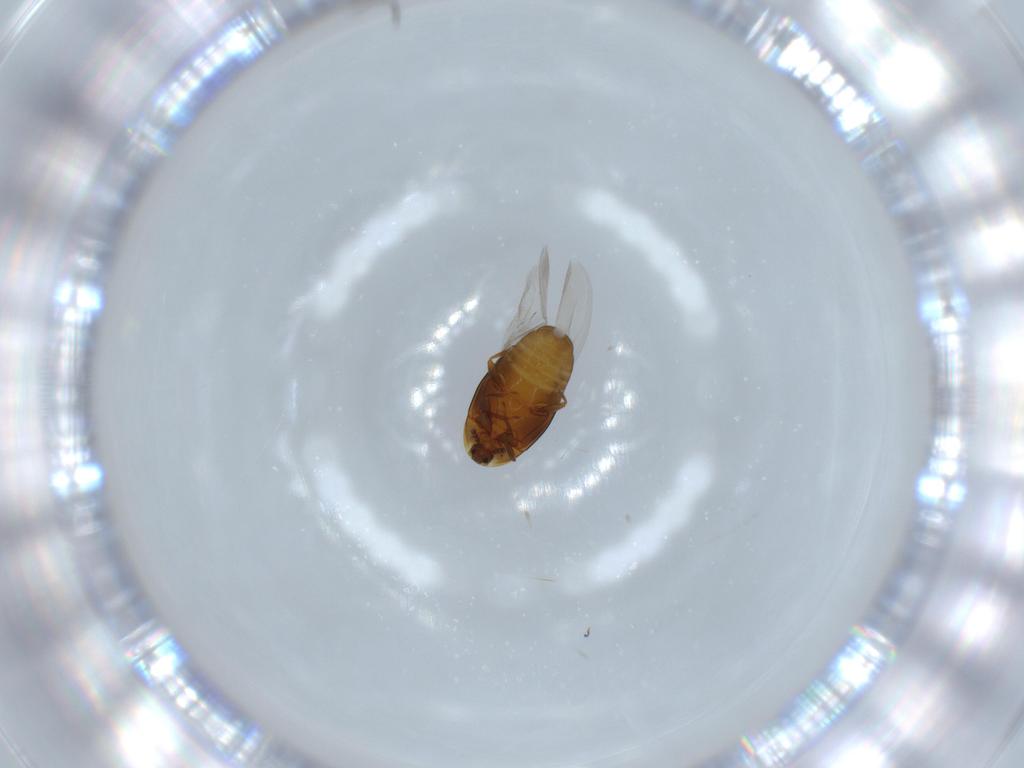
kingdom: Animalia
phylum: Arthropoda
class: Insecta
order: Coleoptera
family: Corylophidae
